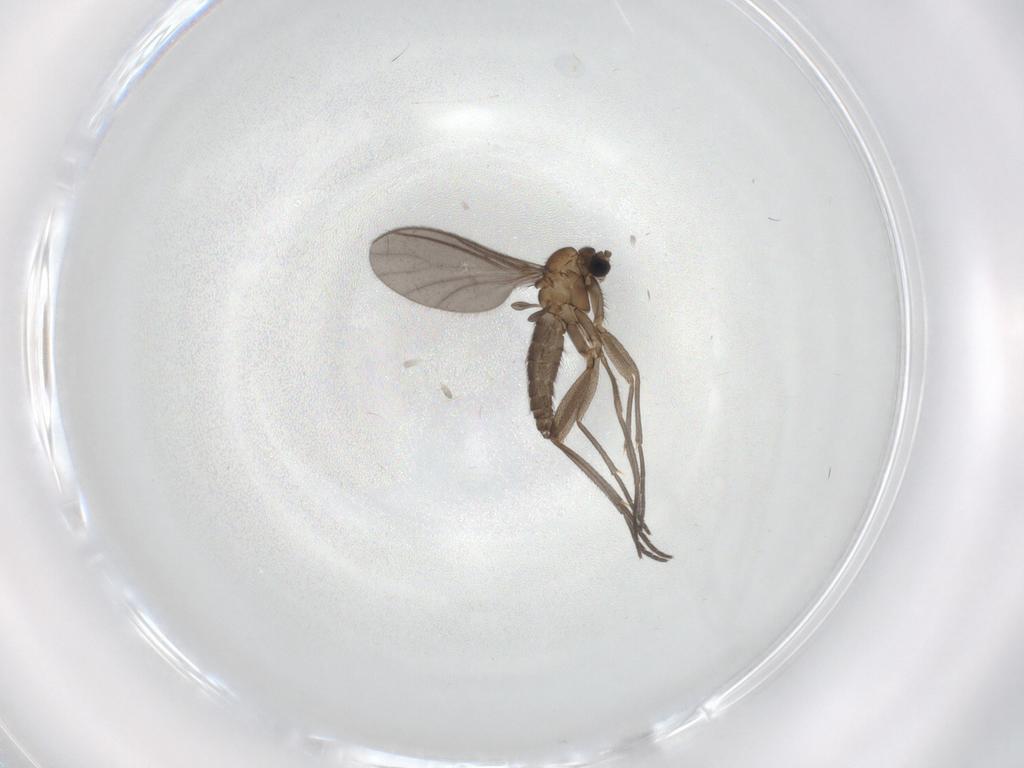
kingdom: Animalia
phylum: Arthropoda
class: Insecta
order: Diptera
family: Sciaridae
